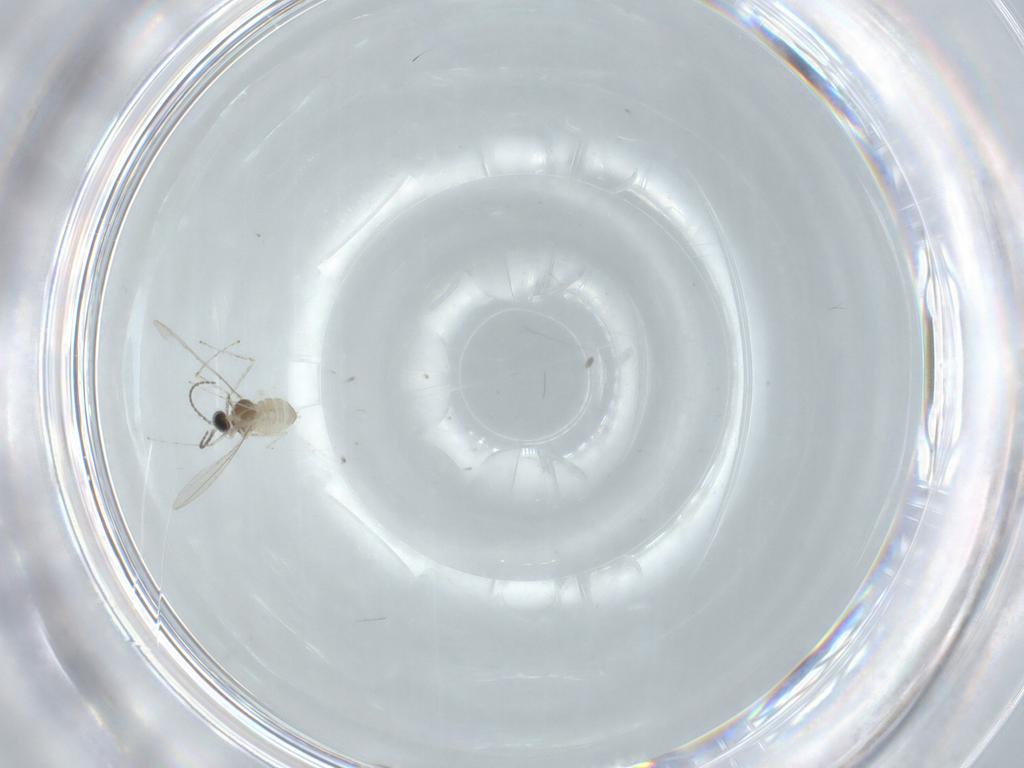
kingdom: Animalia
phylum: Arthropoda
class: Insecta
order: Diptera
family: Cecidomyiidae
